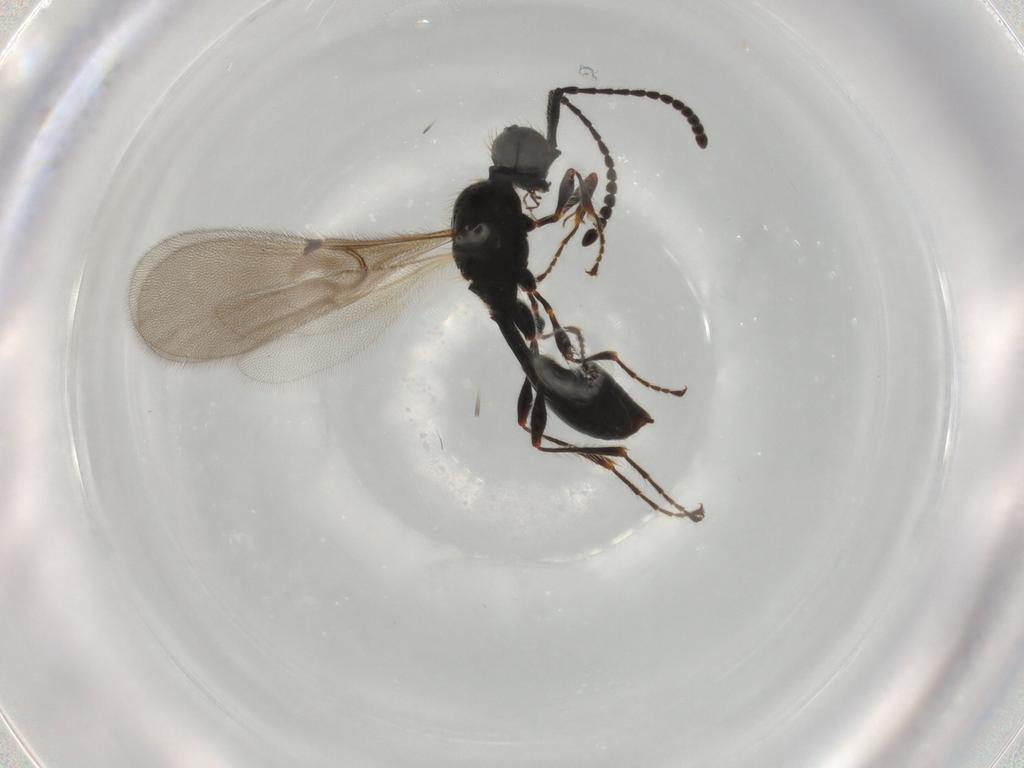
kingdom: Animalia
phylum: Arthropoda
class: Insecta
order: Hymenoptera
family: Diapriidae
